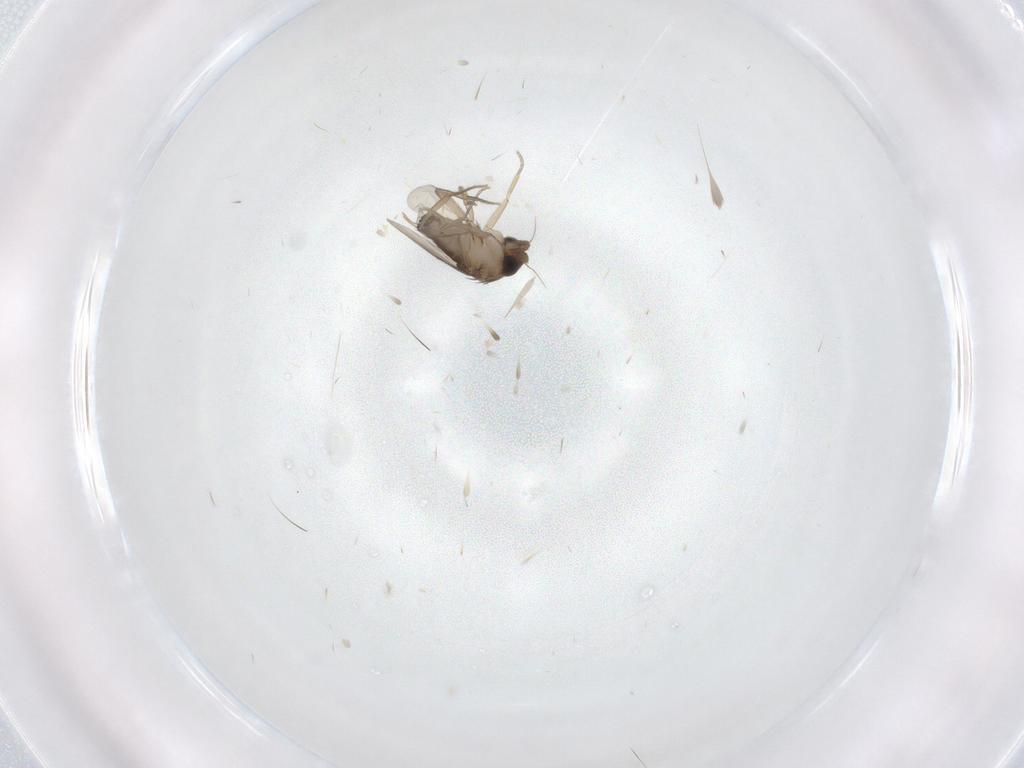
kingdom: Animalia
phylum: Arthropoda
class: Insecta
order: Diptera
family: Phoridae
